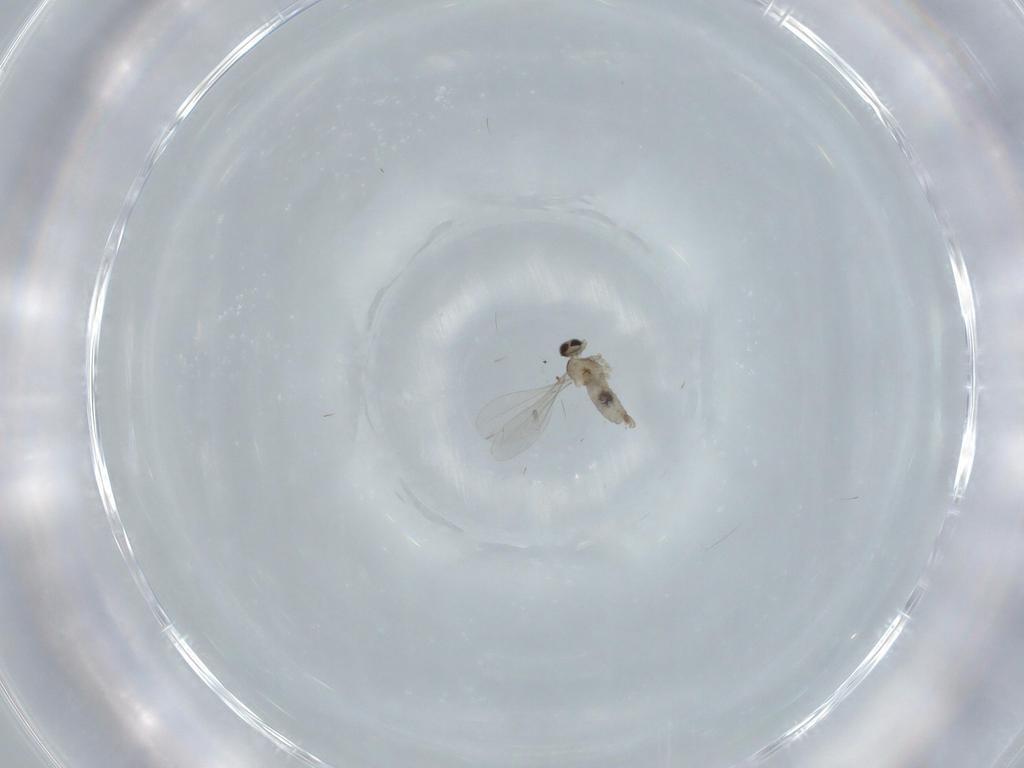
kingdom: Animalia
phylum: Arthropoda
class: Insecta
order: Diptera
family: Cecidomyiidae
